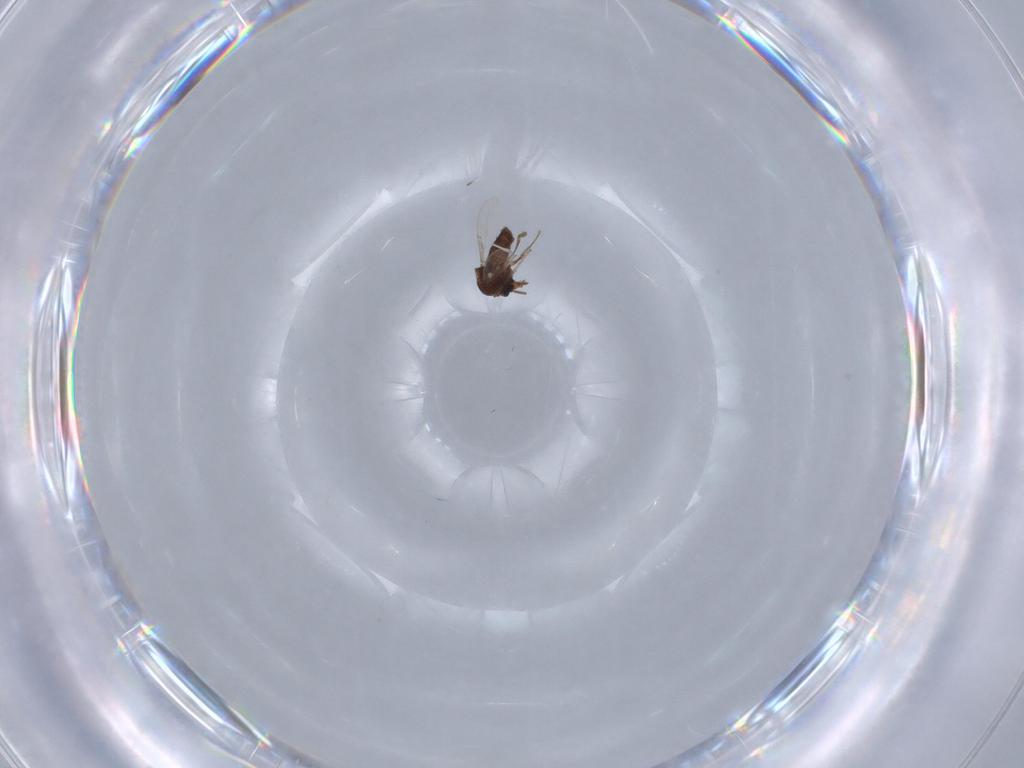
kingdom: Animalia
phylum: Arthropoda
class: Insecta
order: Diptera
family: Ceratopogonidae
